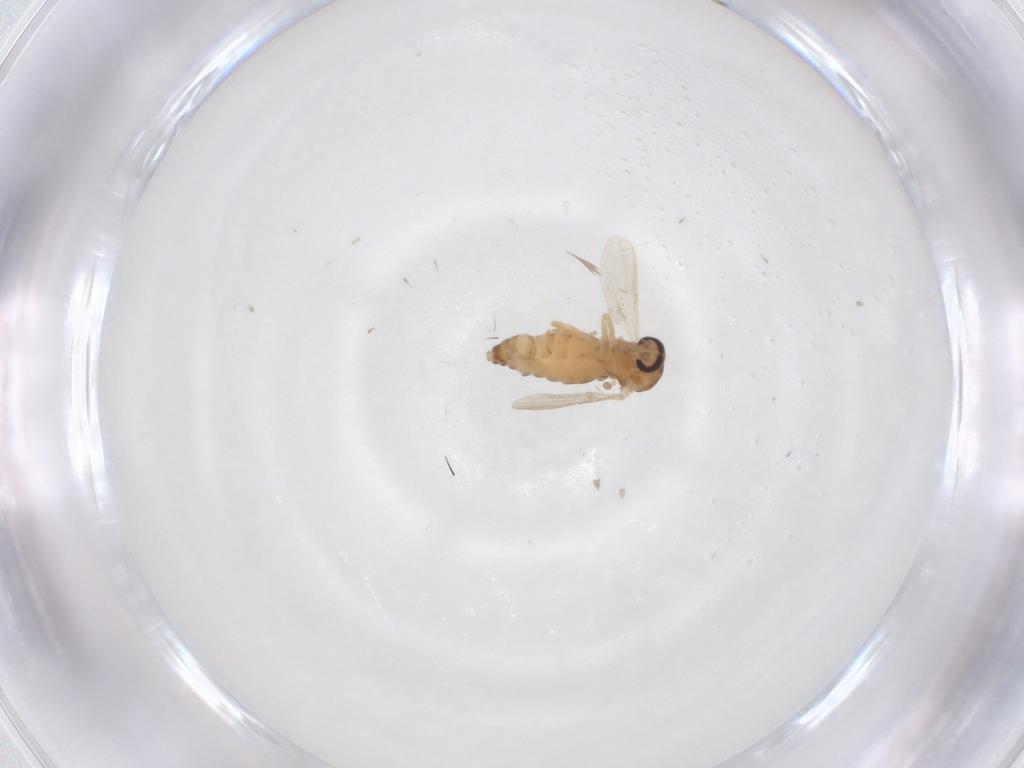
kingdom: Animalia
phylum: Arthropoda
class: Insecta
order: Diptera
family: Ceratopogonidae
